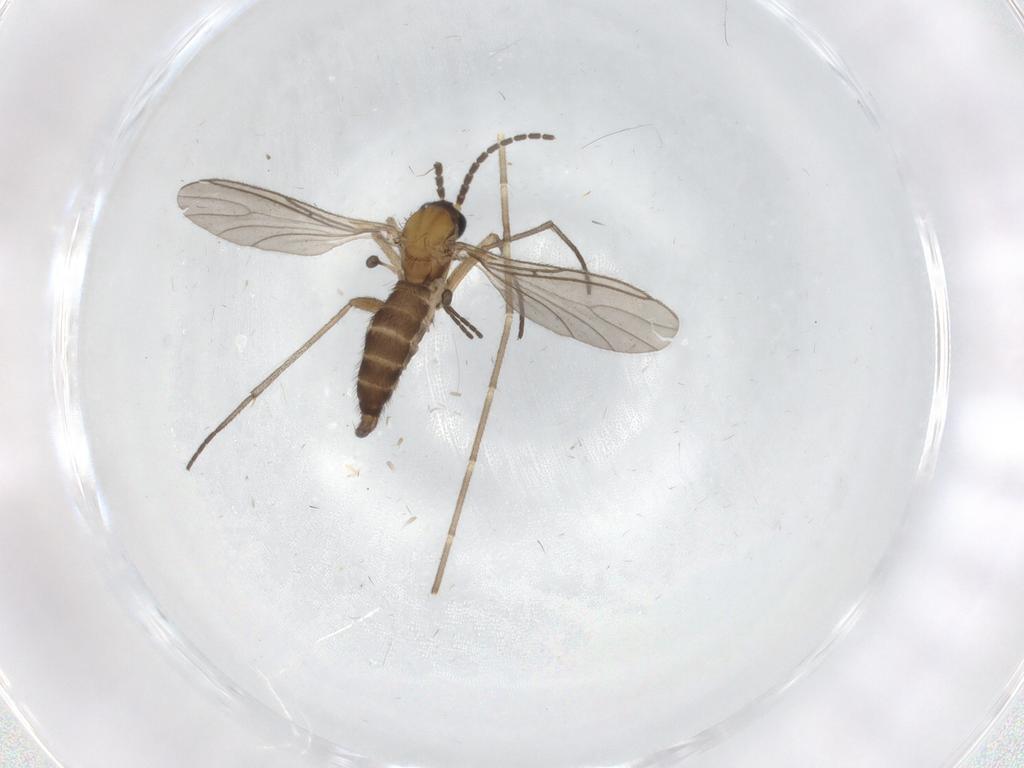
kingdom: Animalia
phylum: Arthropoda
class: Insecta
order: Diptera
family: Sciaridae
